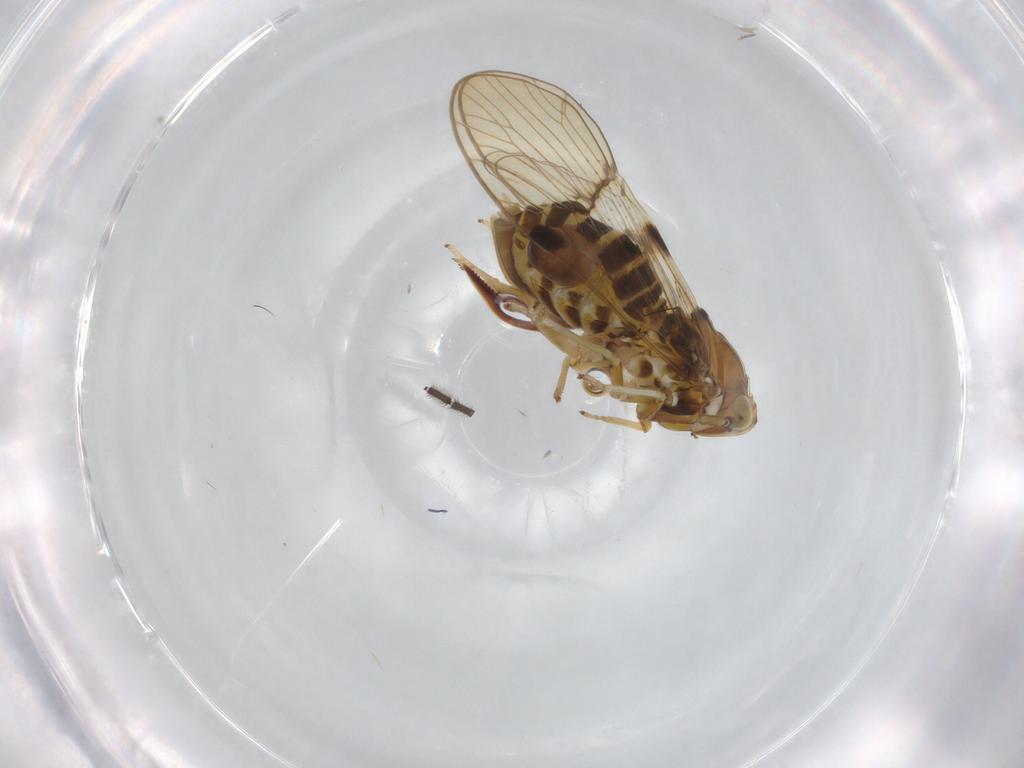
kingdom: Animalia
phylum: Arthropoda
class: Insecta
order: Hemiptera
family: Delphacidae
